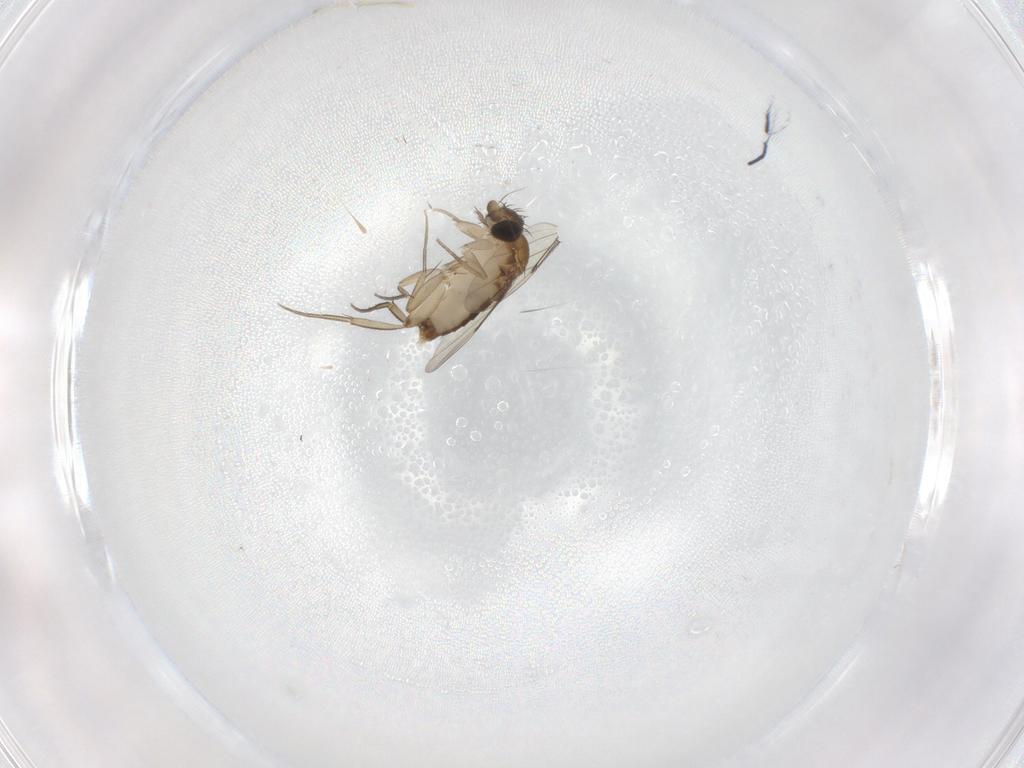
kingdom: Animalia
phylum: Arthropoda
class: Insecta
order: Diptera
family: Phoridae
